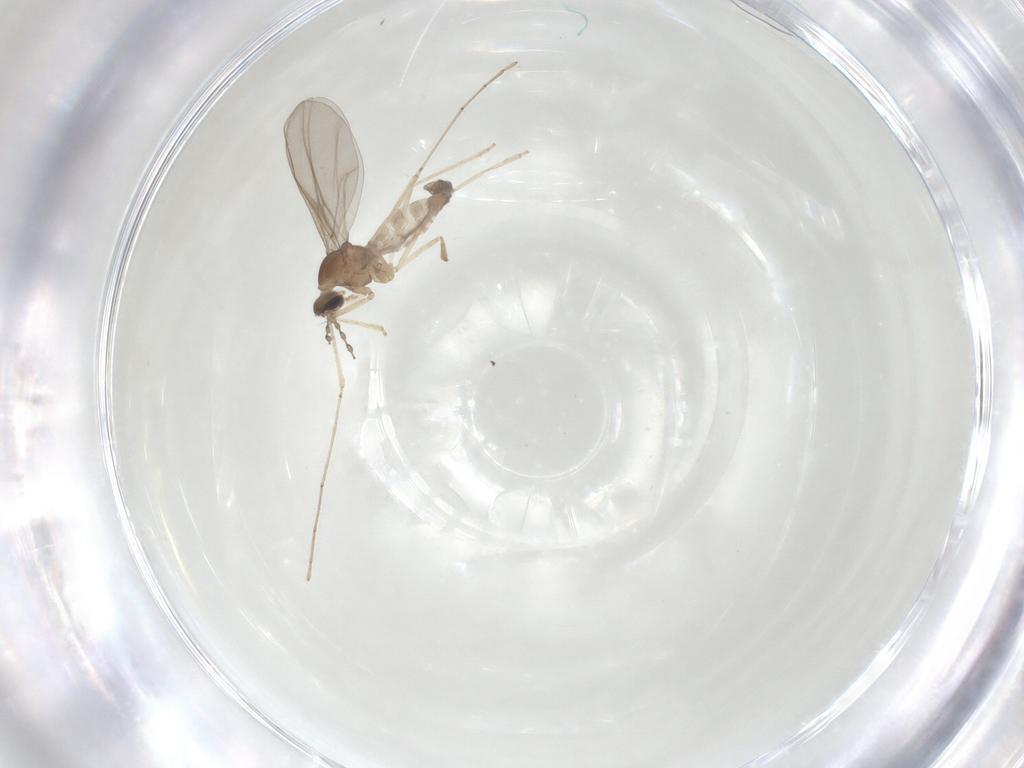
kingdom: Animalia
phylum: Arthropoda
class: Insecta
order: Diptera
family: Cecidomyiidae
